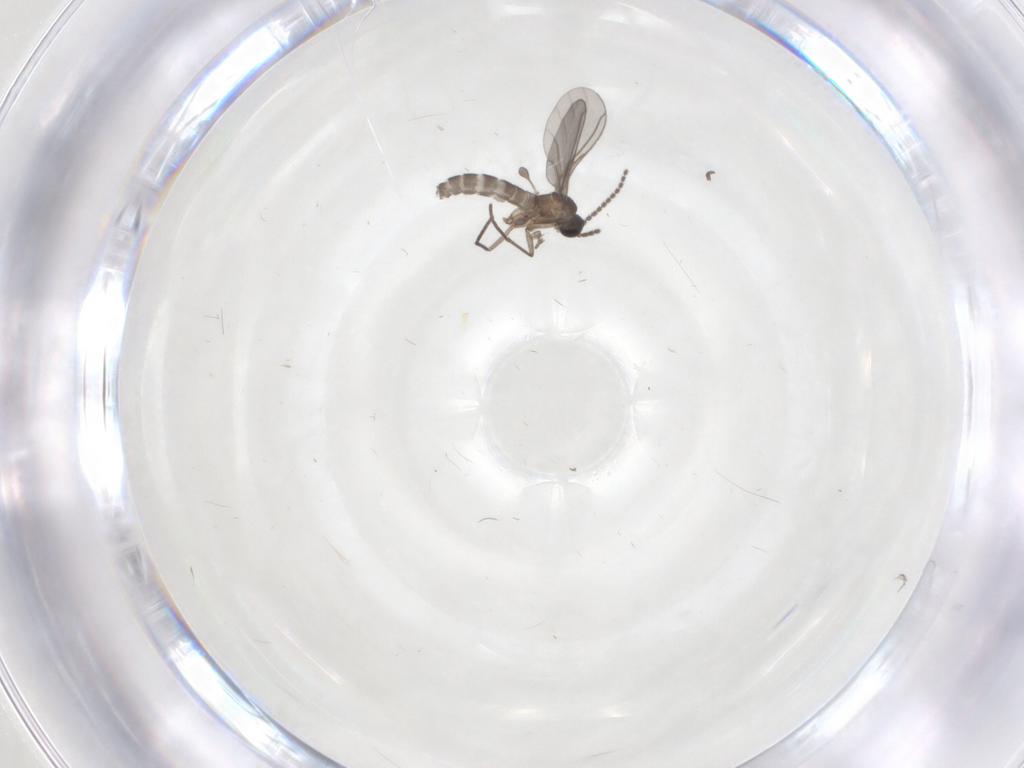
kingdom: Animalia
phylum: Arthropoda
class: Insecta
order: Diptera
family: Sciaridae
